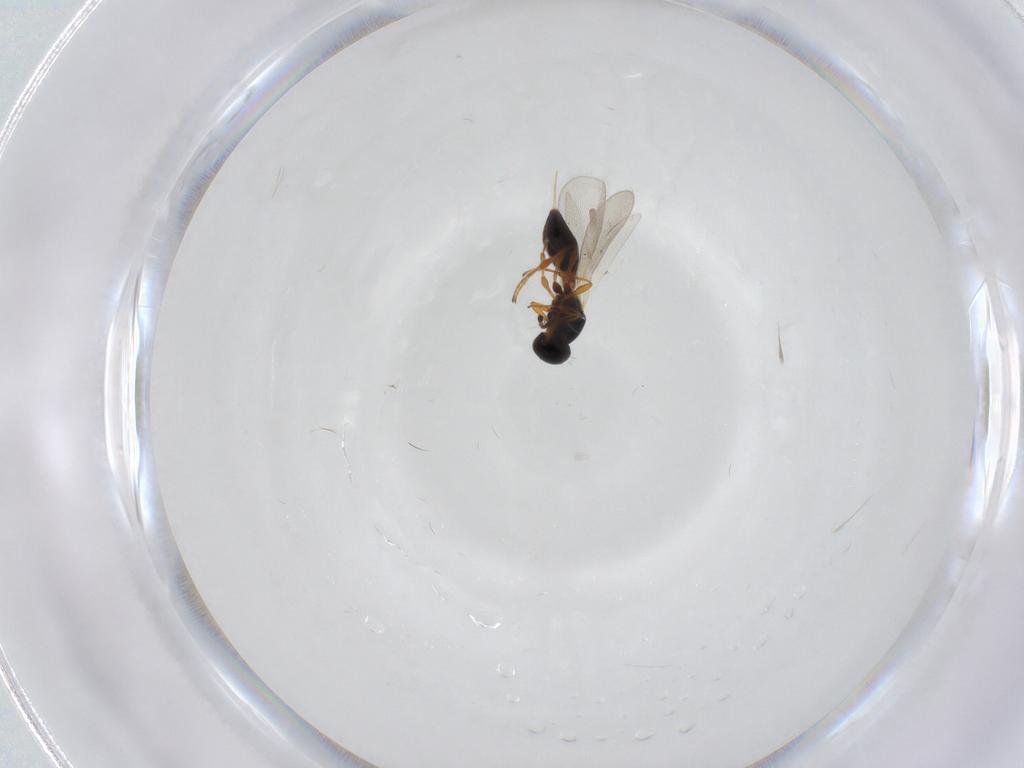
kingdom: Animalia
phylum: Arthropoda
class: Insecta
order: Hymenoptera
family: Platygastridae
